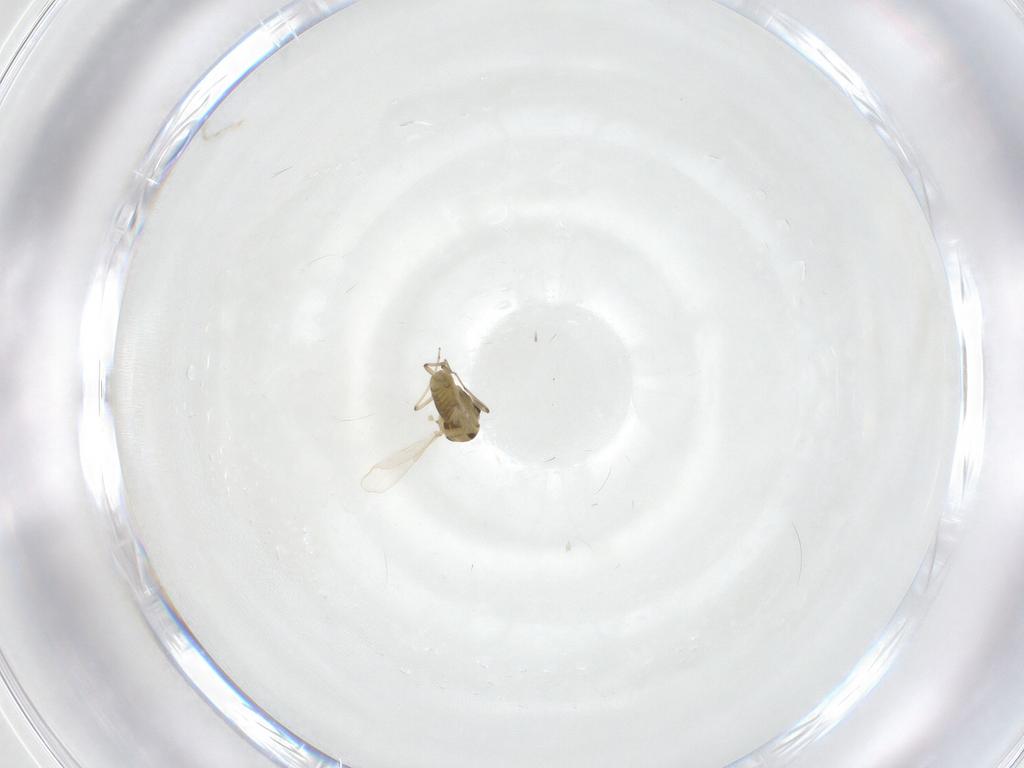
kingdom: Animalia
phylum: Arthropoda
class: Insecta
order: Diptera
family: Chironomidae
